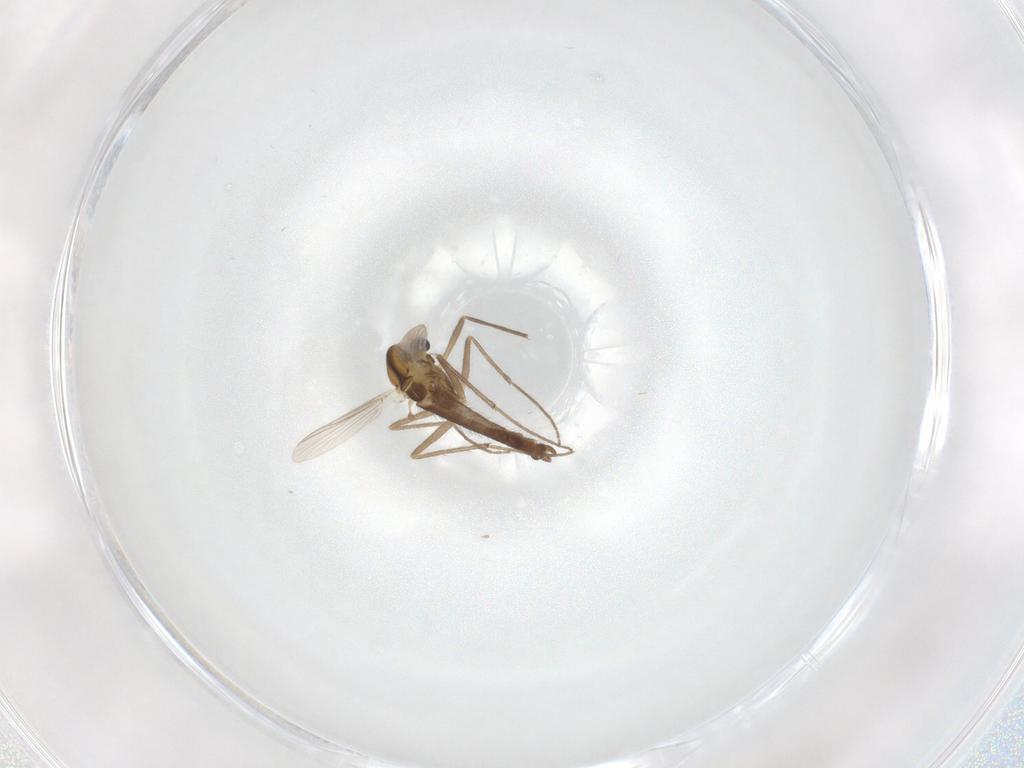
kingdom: Animalia
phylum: Arthropoda
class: Insecta
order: Diptera
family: Chironomidae
